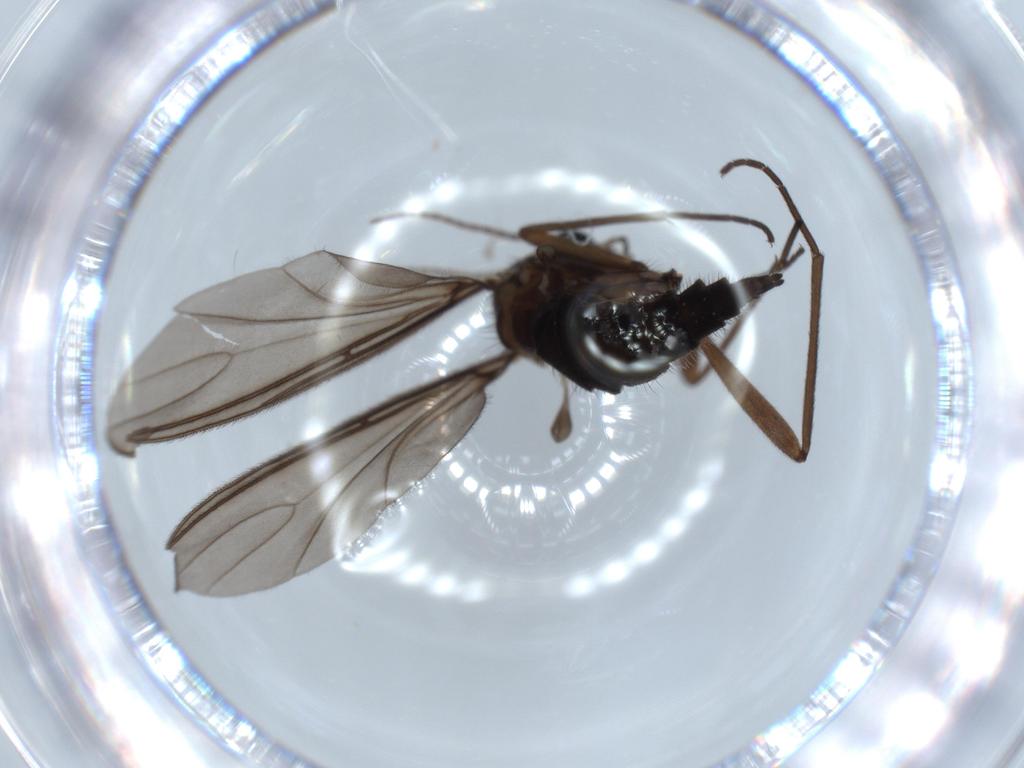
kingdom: Animalia
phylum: Arthropoda
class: Insecta
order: Diptera
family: Sciaridae
